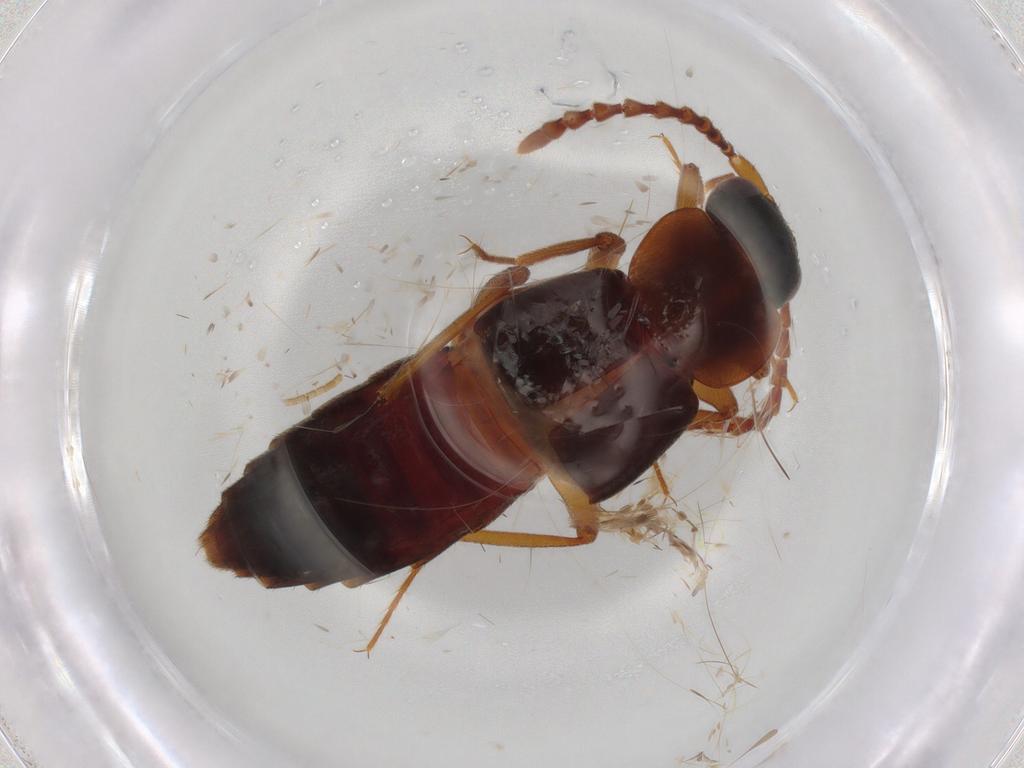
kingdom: Animalia
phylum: Arthropoda
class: Insecta
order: Coleoptera
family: Staphylinidae
